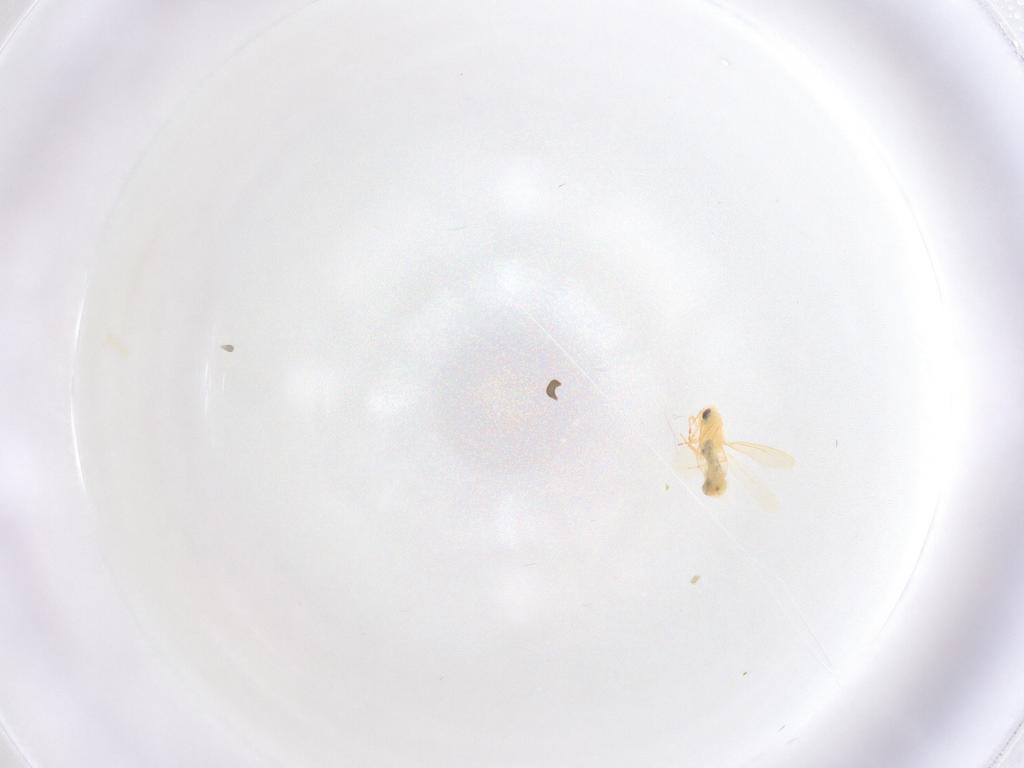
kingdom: Animalia
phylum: Arthropoda
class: Insecta
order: Hemiptera
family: Aleyrodidae
